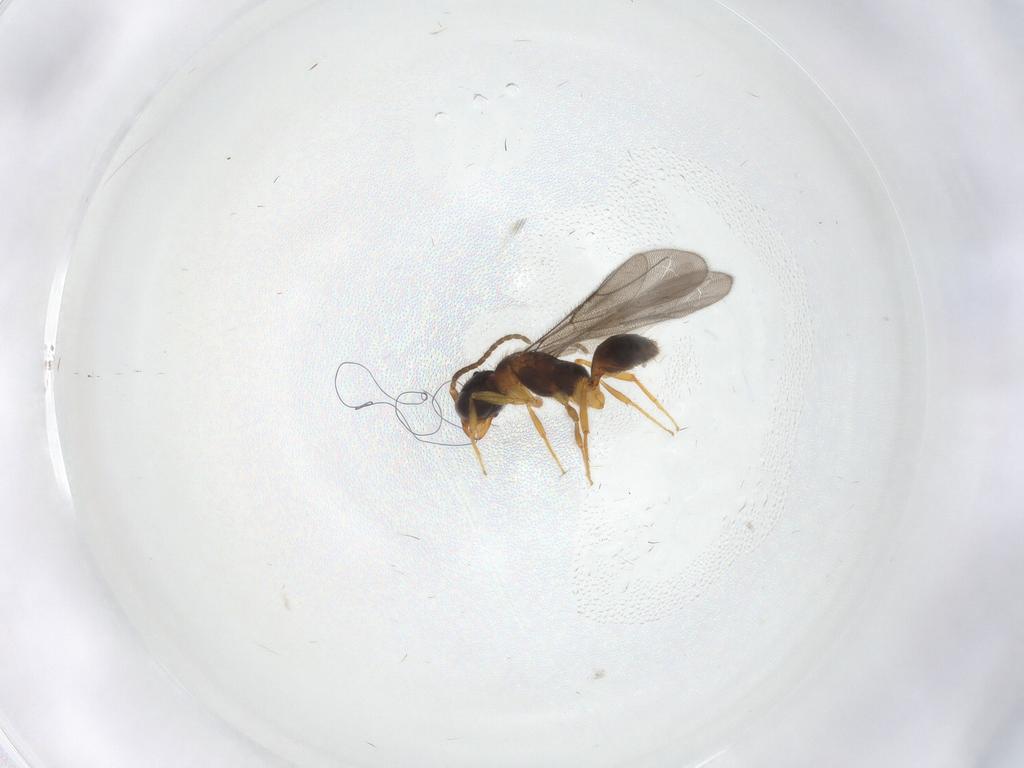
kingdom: Animalia
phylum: Arthropoda
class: Insecta
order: Hymenoptera
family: Bethylidae
